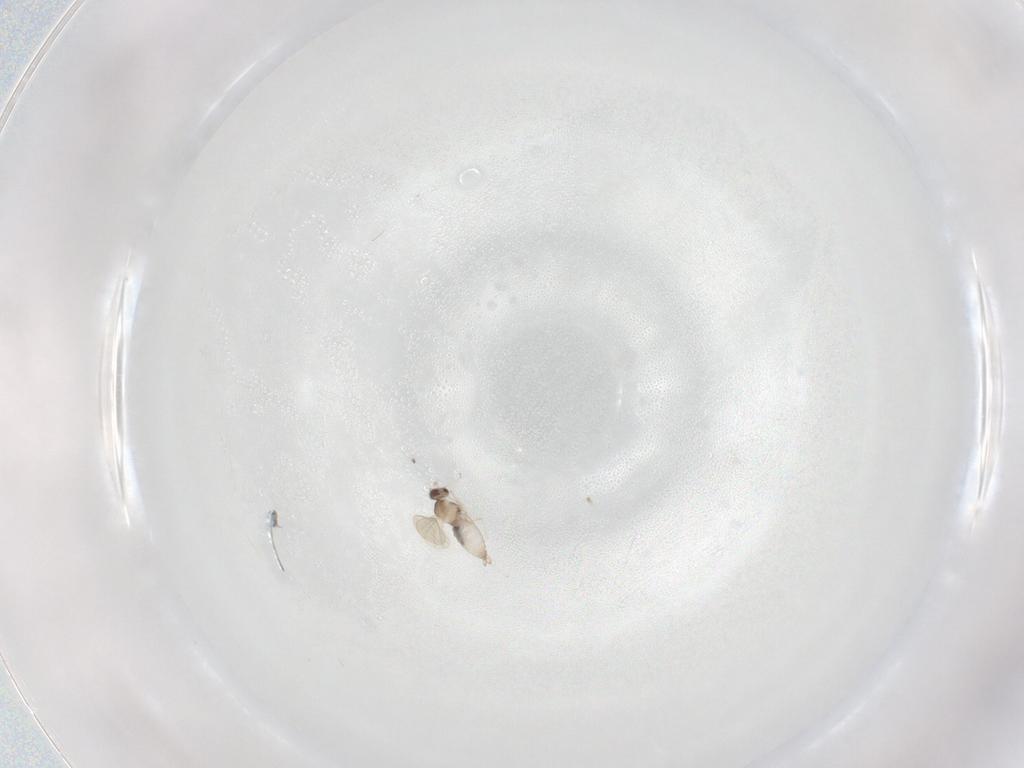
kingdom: Animalia
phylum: Arthropoda
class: Insecta
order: Diptera
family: Cecidomyiidae
